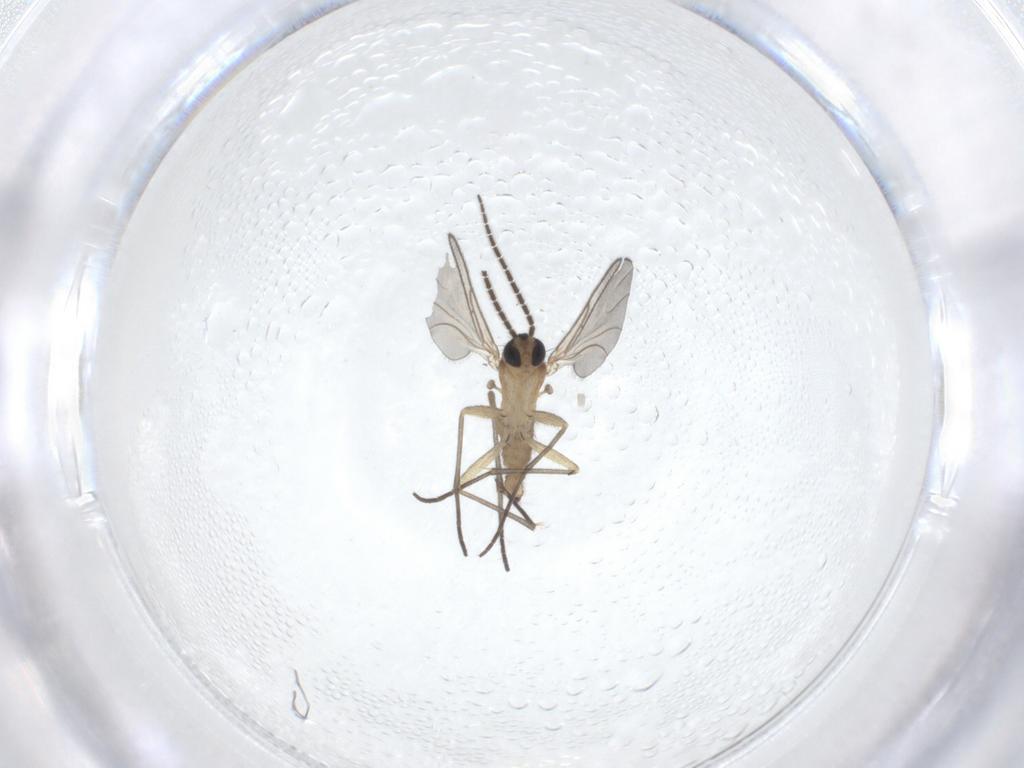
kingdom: Animalia
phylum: Arthropoda
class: Insecta
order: Diptera
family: Sciaridae
